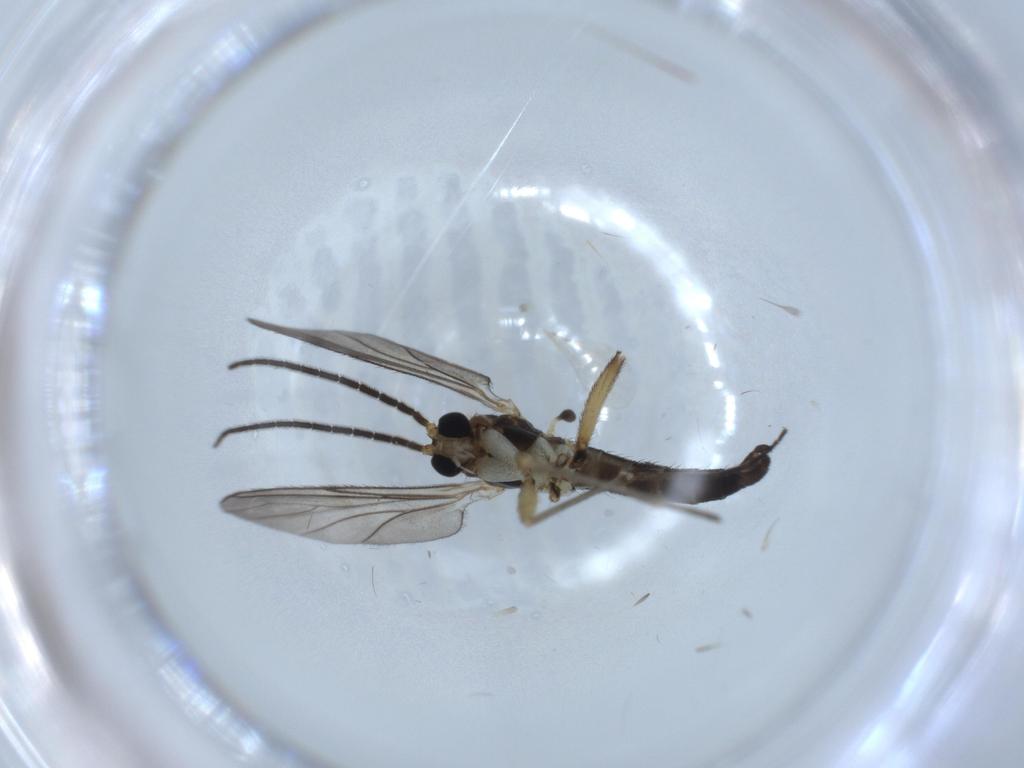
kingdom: Animalia
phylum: Arthropoda
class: Insecta
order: Diptera
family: Sciaridae
